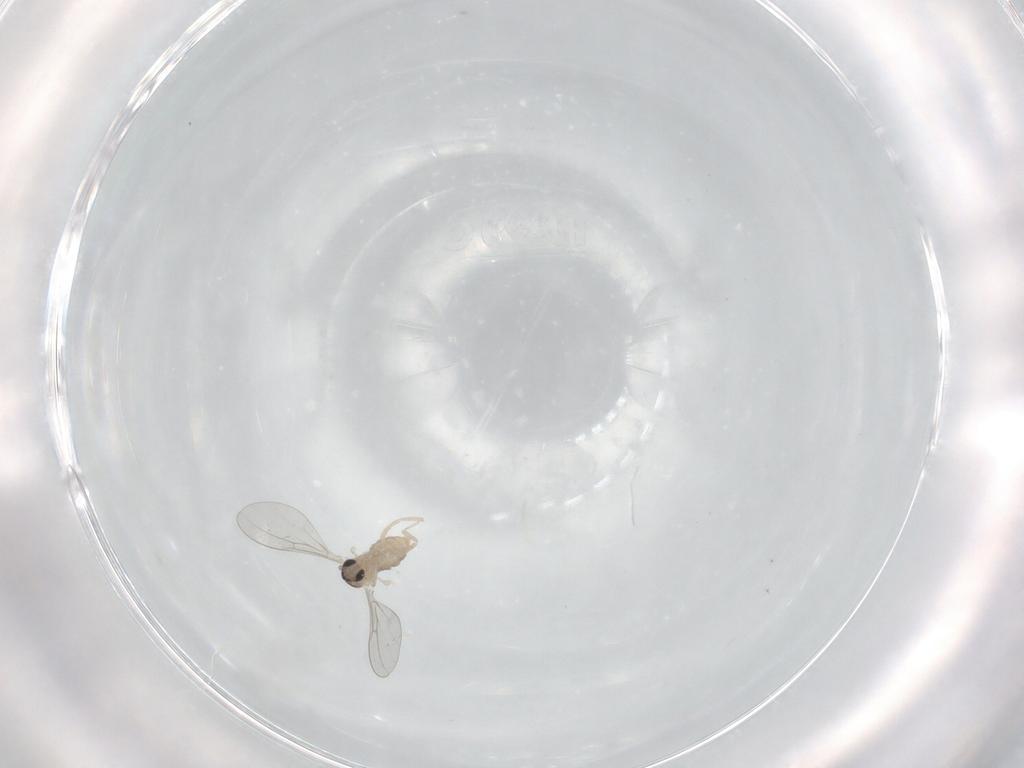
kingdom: Animalia
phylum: Arthropoda
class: Insecta
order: Diptera
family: Cecidomyiidae
